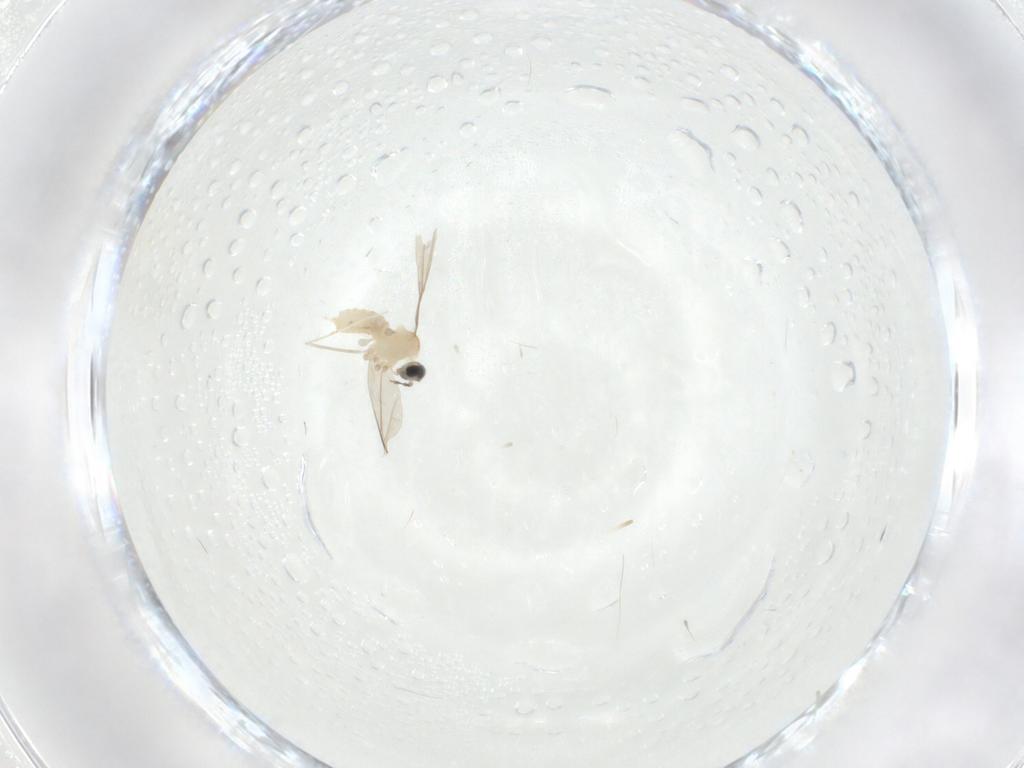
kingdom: Animalia
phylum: Arthropoda
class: Insecta
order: Diptera
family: Cecidomyiidae
